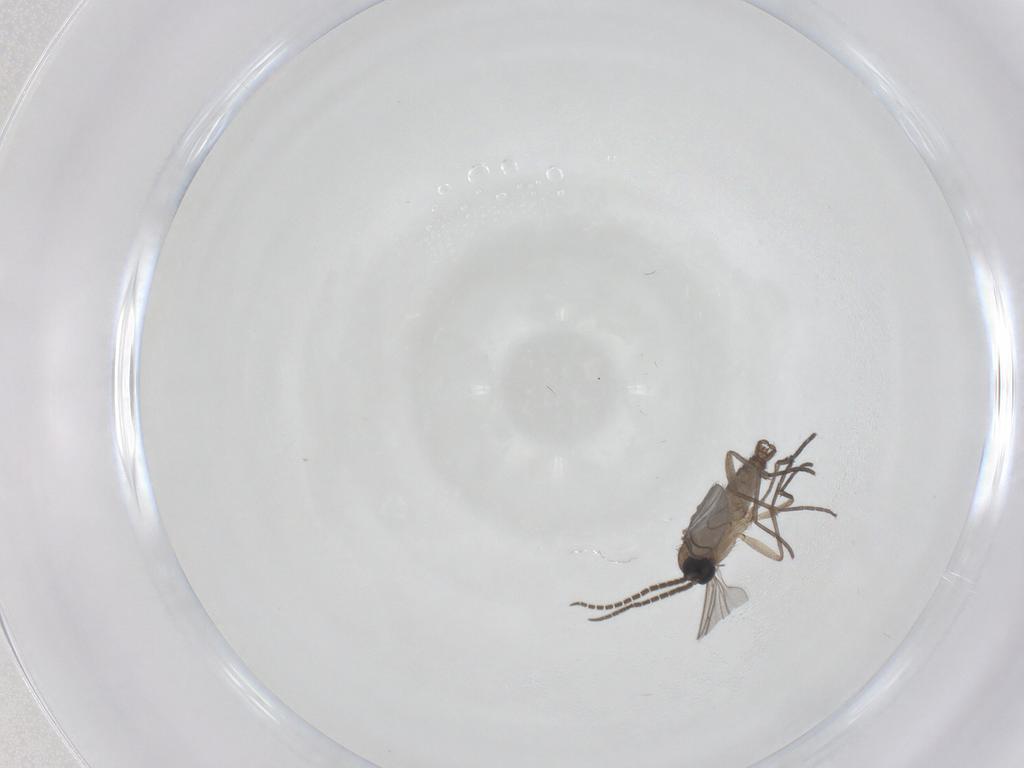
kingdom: Animalia
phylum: Arthropoda
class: Insecta
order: Diptera
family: Sciaridae
